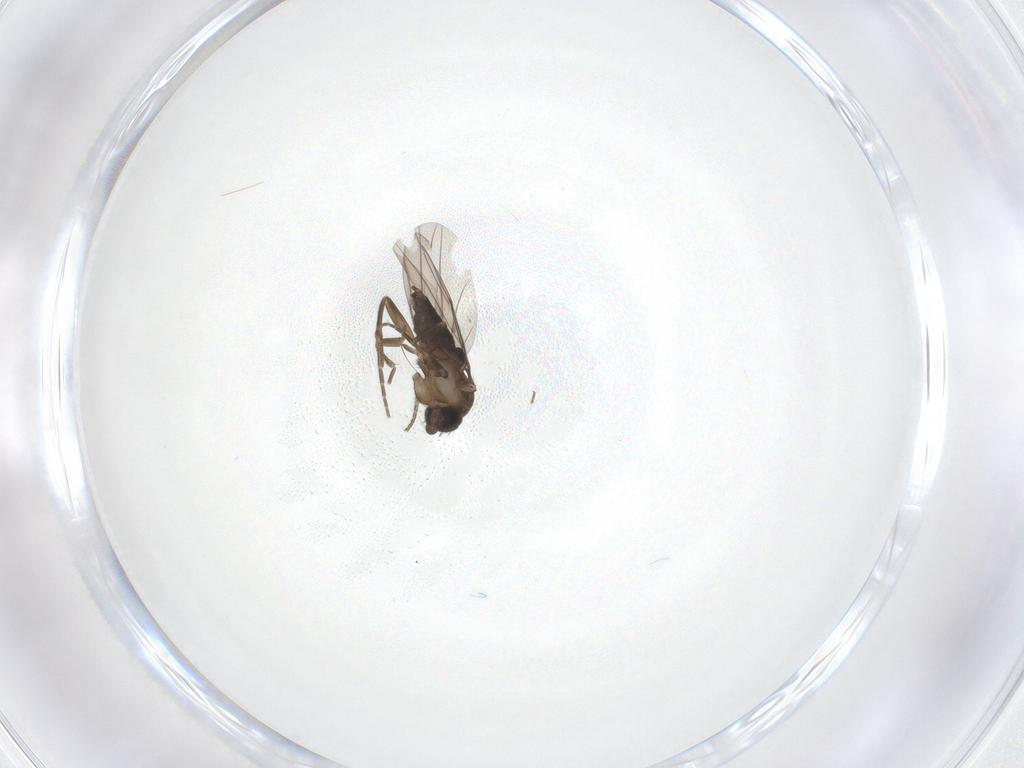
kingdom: Animalia
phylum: Arthropoda
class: Insecta
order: Diptera
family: Phoridae
